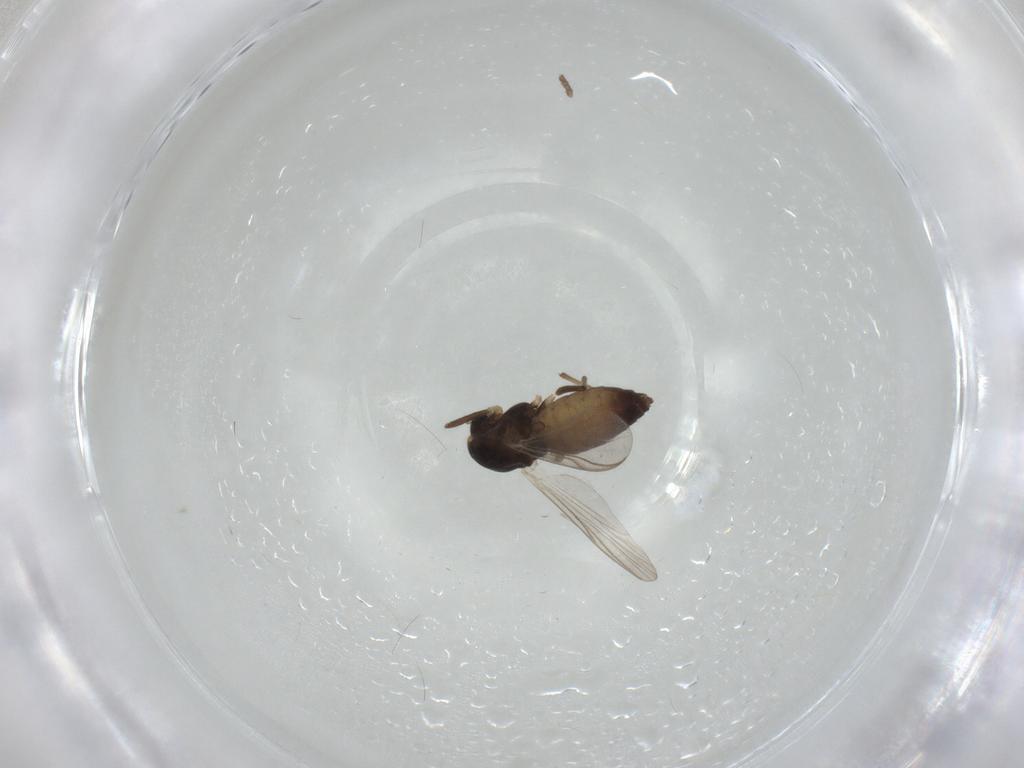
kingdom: Animalia
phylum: Arthropoda
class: Insecta
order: Diptera
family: Chironomidae
